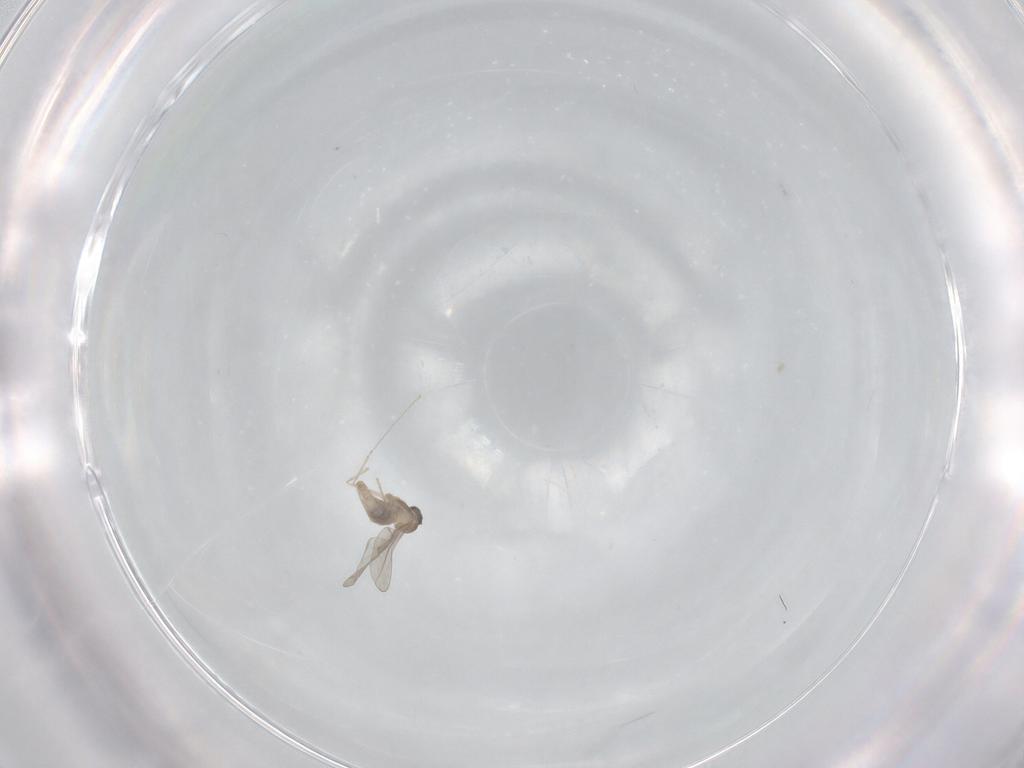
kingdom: Animalia
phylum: Arthropoda
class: Insecta
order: Diptera
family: Cecidomyiidae
